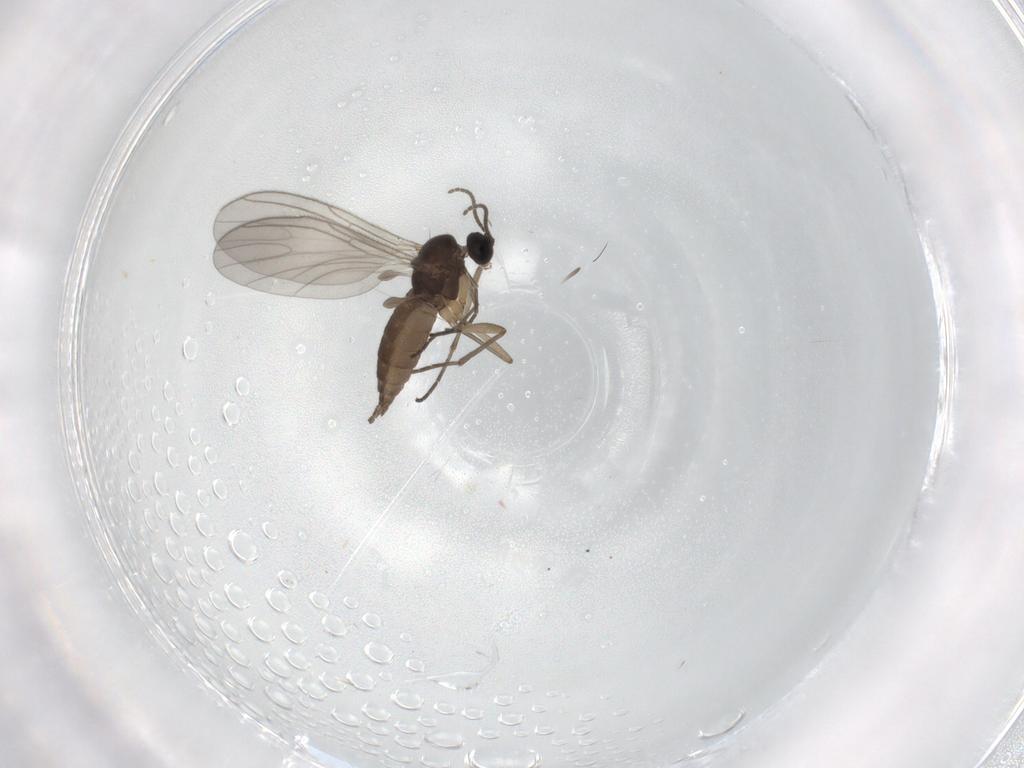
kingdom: Animalia
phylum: Arthropoda
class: Insecta
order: Diptera
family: Sciaridae
